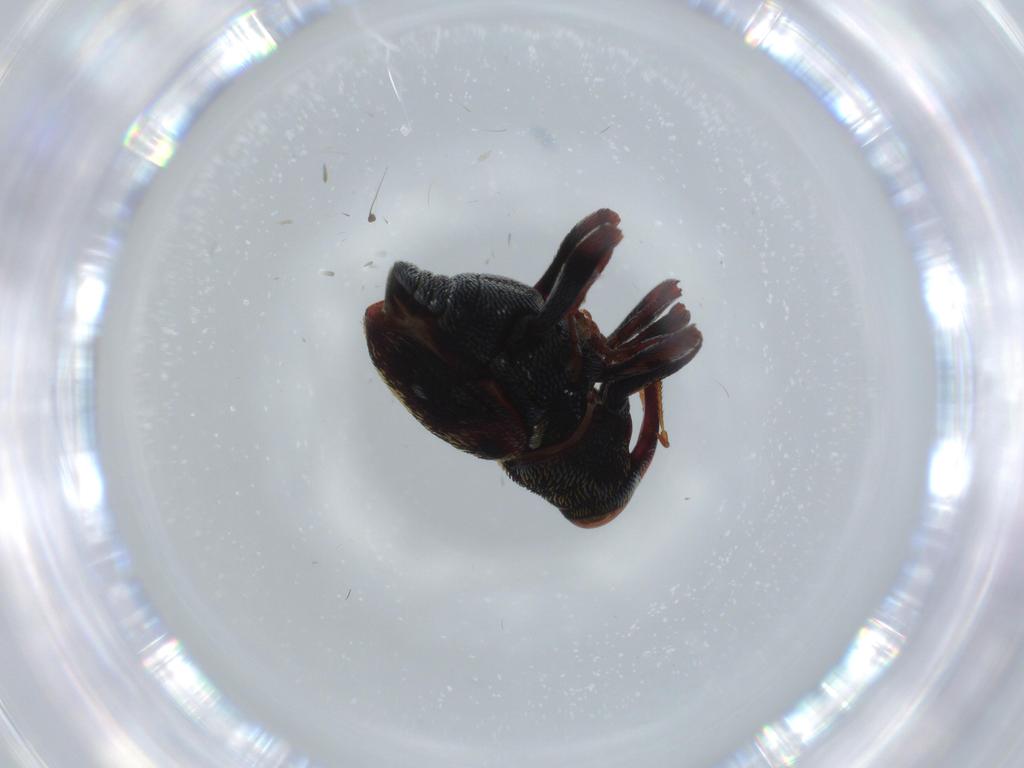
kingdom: Animalia
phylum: Arthropoda
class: Insecta
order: Coleoptera
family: Curculionidae
